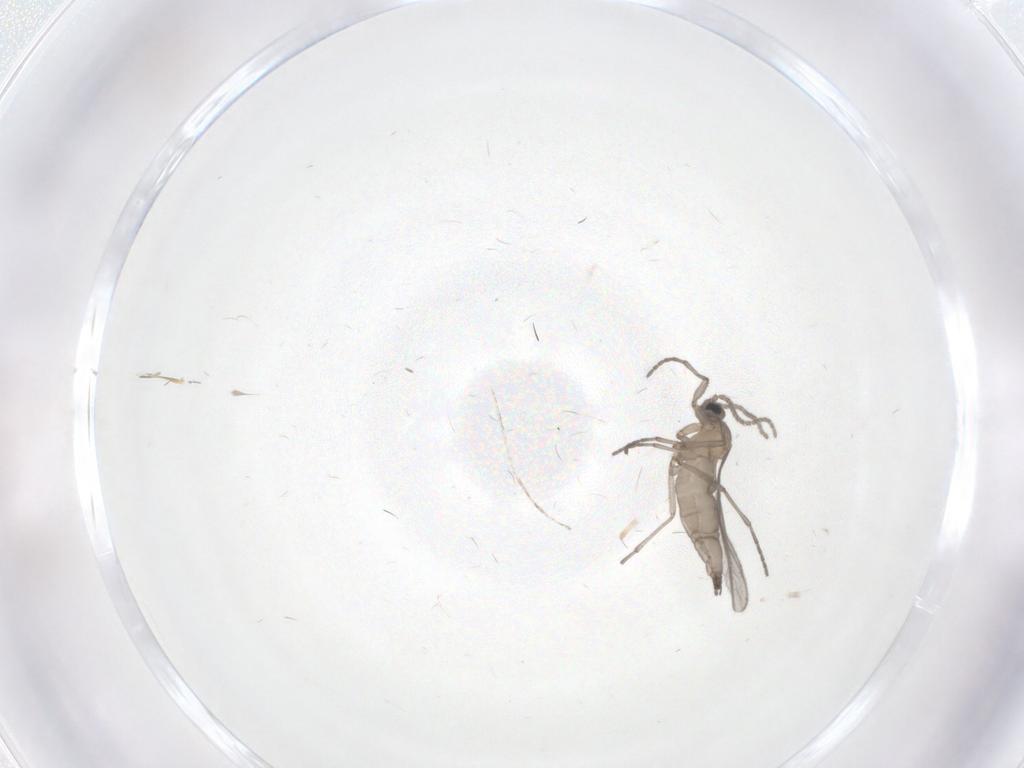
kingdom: Animalia
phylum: Arthropoda
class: Insecta
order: Diptera
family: Sciaridae
